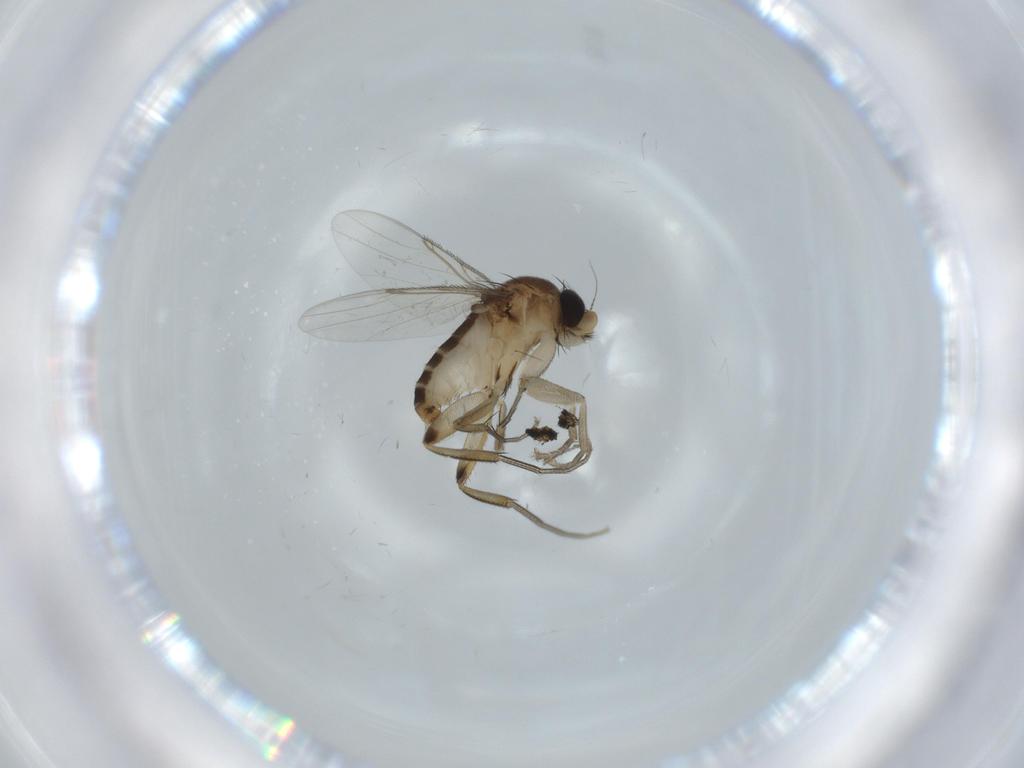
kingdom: Animalia
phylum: Arthropoda
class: Insecta
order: Diptera
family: Phoridae
